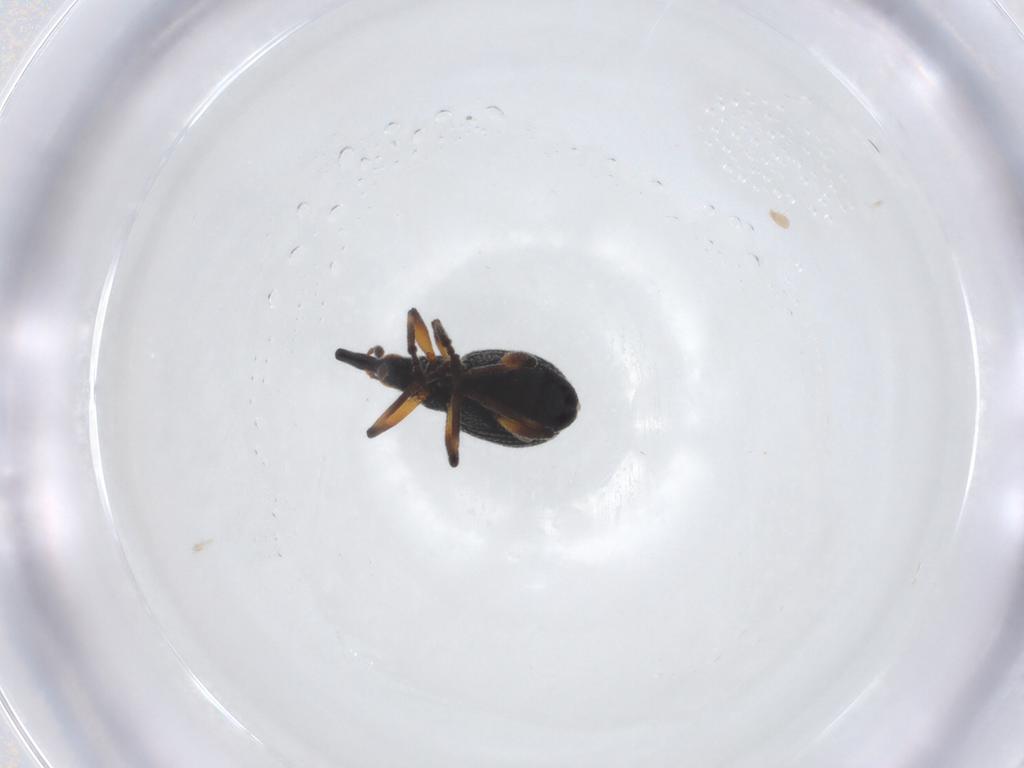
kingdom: Animalia
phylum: Arthropoda
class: Insecta
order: Coleoptera
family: Brentidae
